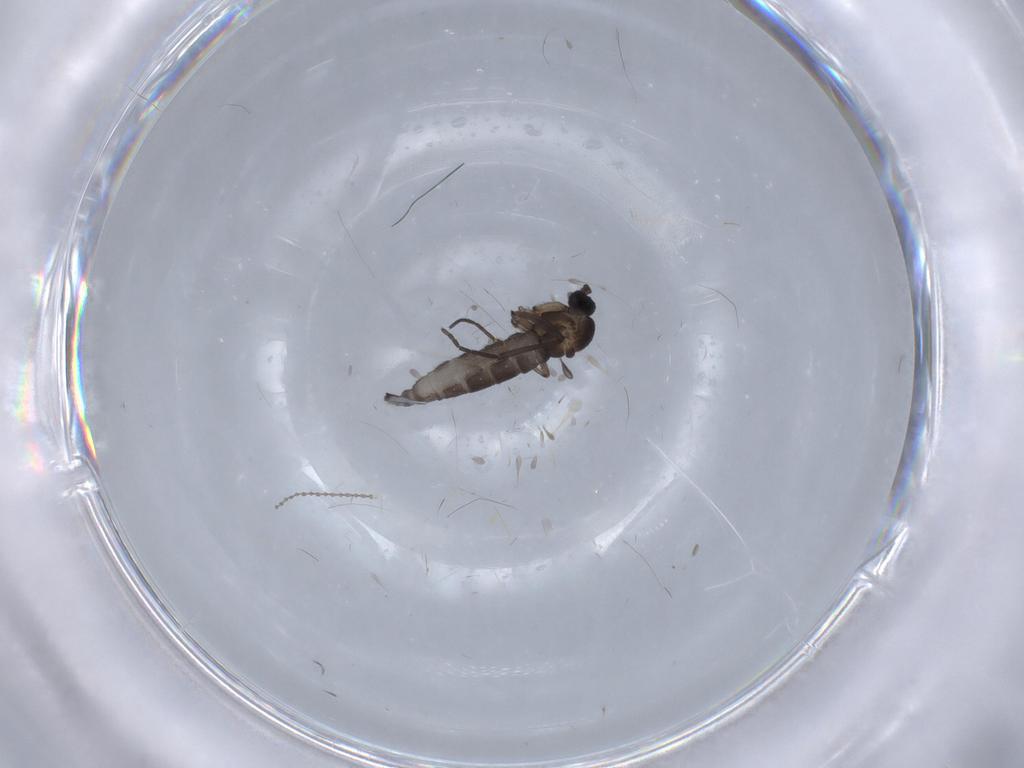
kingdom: Animalia
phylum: Arthropoda
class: Insecta
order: Diptera
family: Cecidomyiidae
